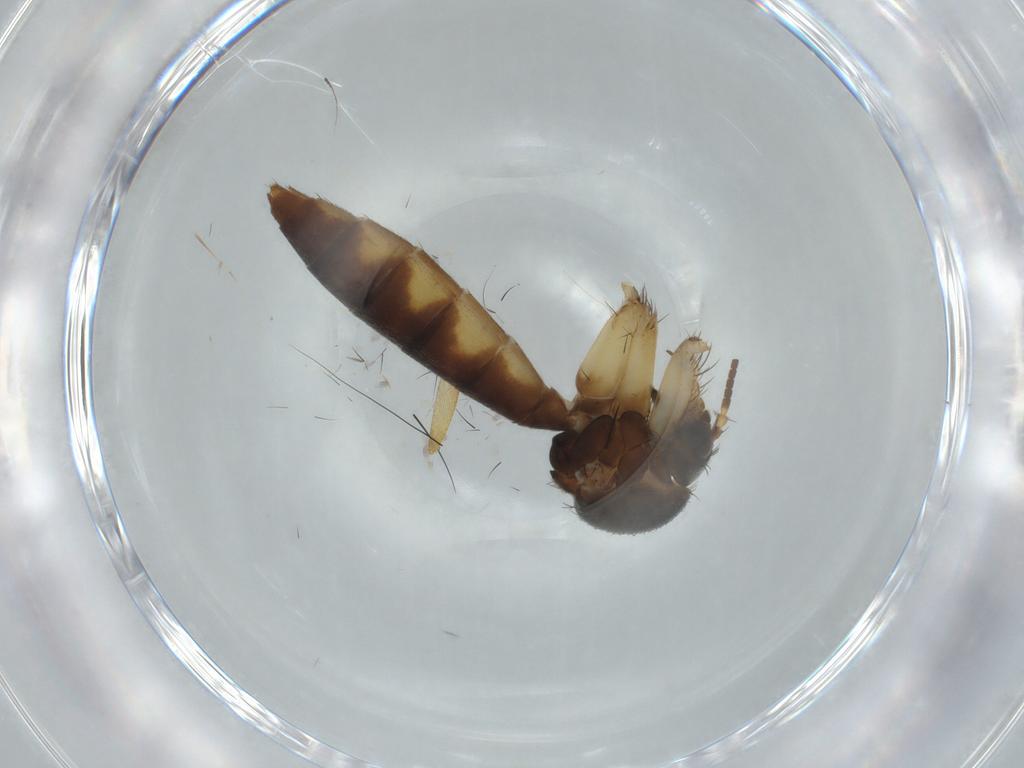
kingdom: Animalia
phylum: Arthropoda
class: Insecta
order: Diptera
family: Phoridae
